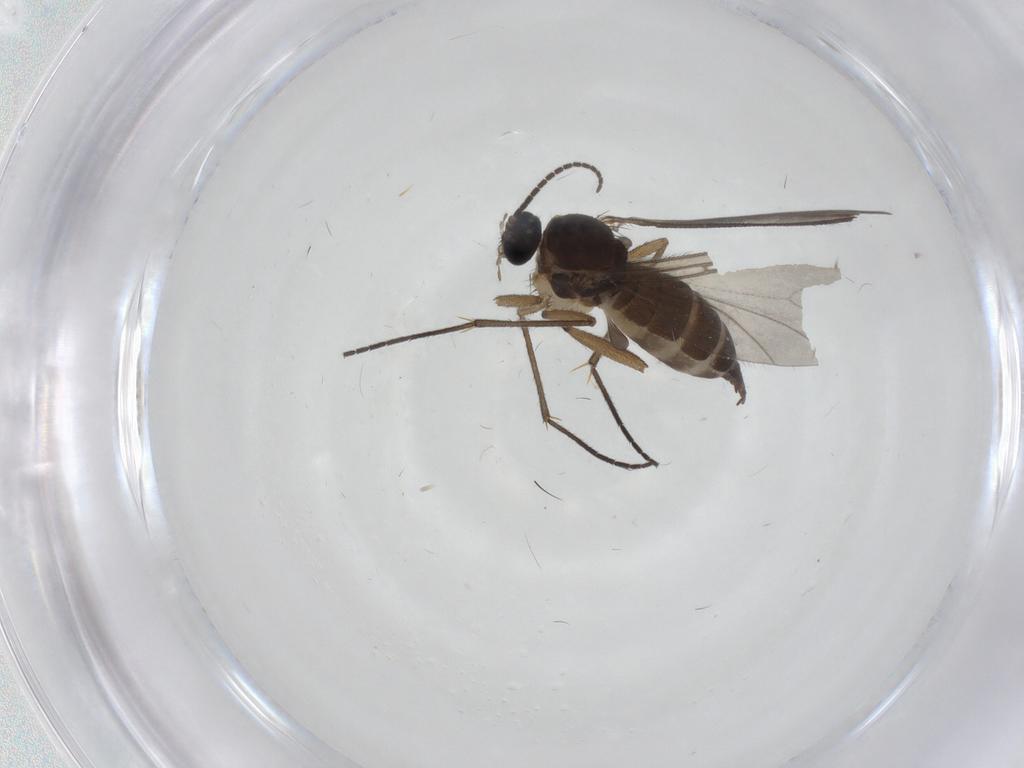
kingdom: Animalia
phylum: Arthropoda
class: Insecta
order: Diptera
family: Sciaridae
